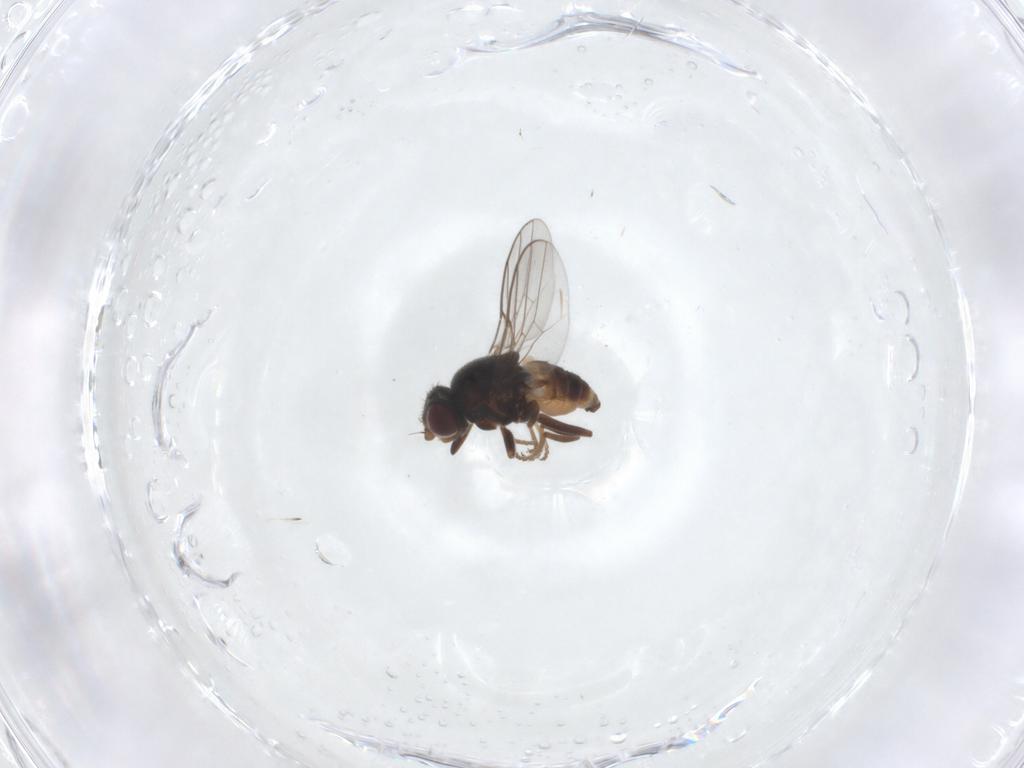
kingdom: Animalia
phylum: Arthropoda
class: Insecta
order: Diptera
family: Chloropidae
